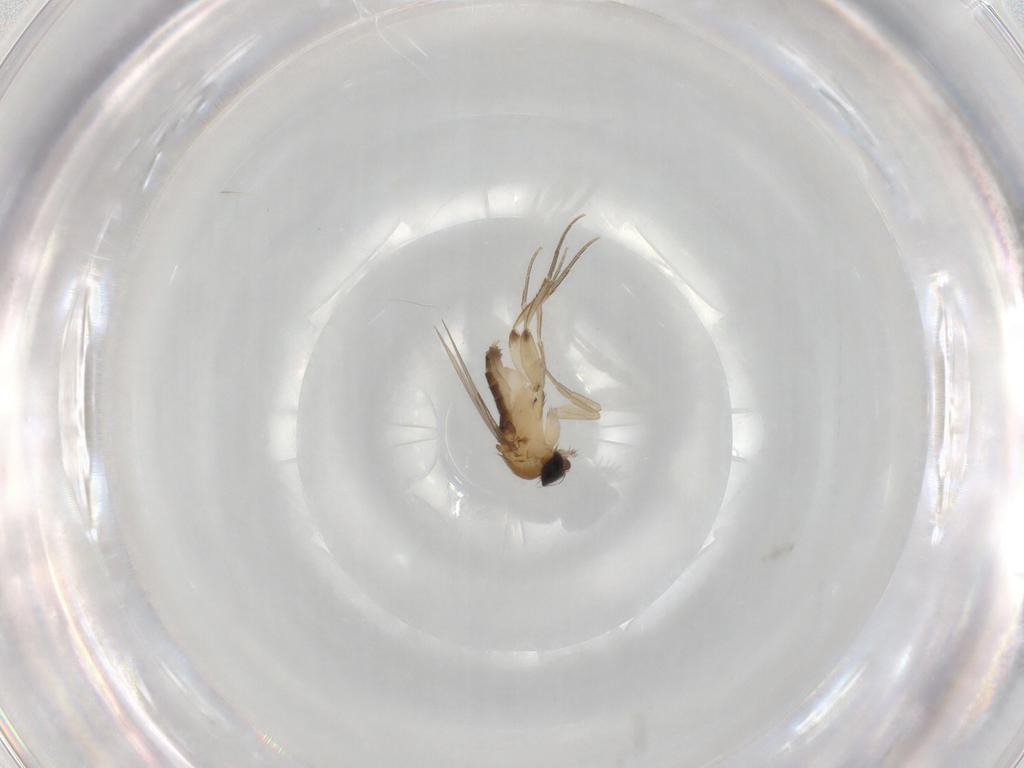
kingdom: Animalia
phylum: Arthropoda
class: Insecta
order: Diptera
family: Phoridae
